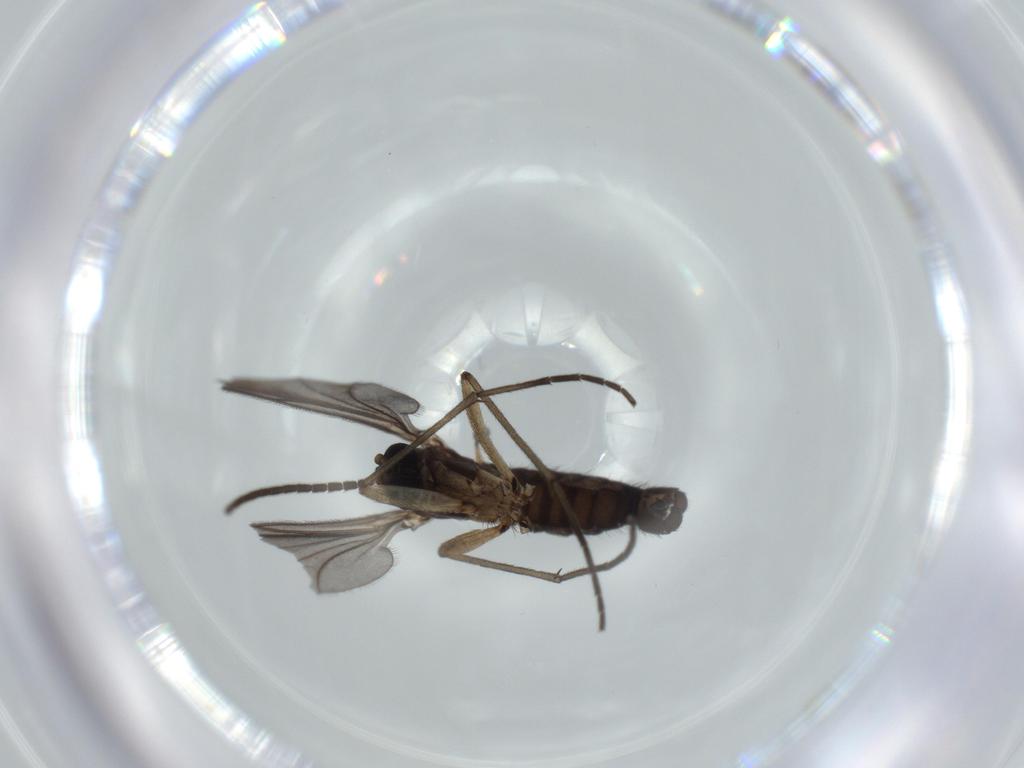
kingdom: Animalia
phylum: Arthropoda
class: Insecta
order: Diptera
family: Sciaridae
